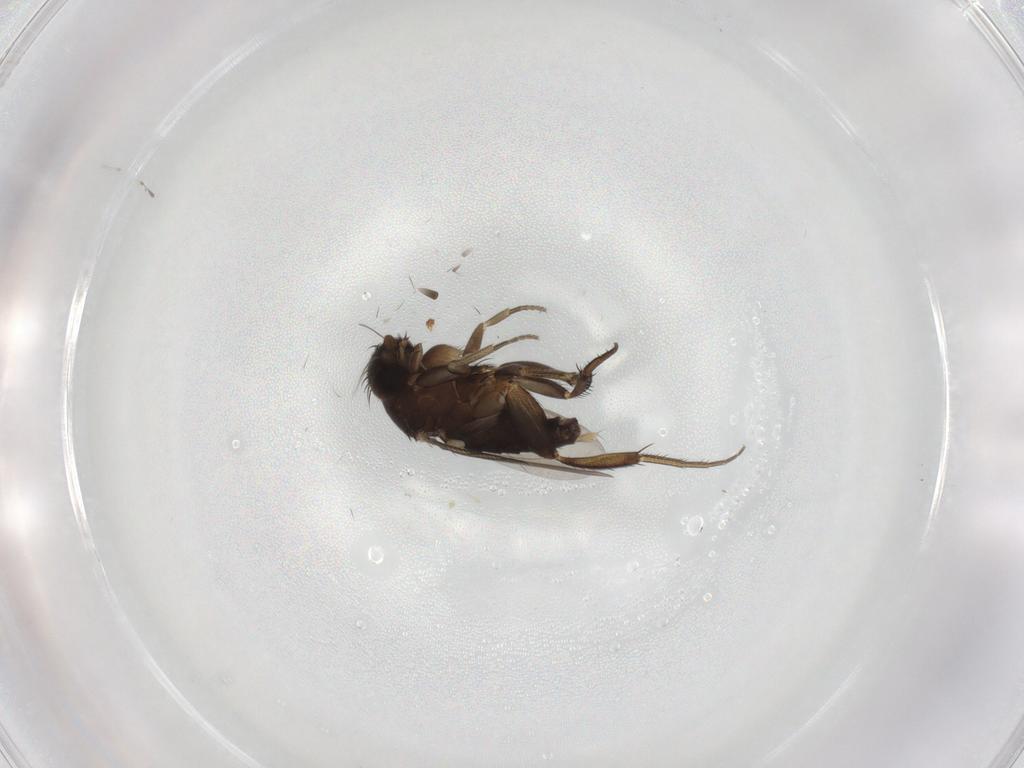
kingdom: Animalia
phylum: Arthropoda
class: Insecta
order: Diptera
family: Phoridae
